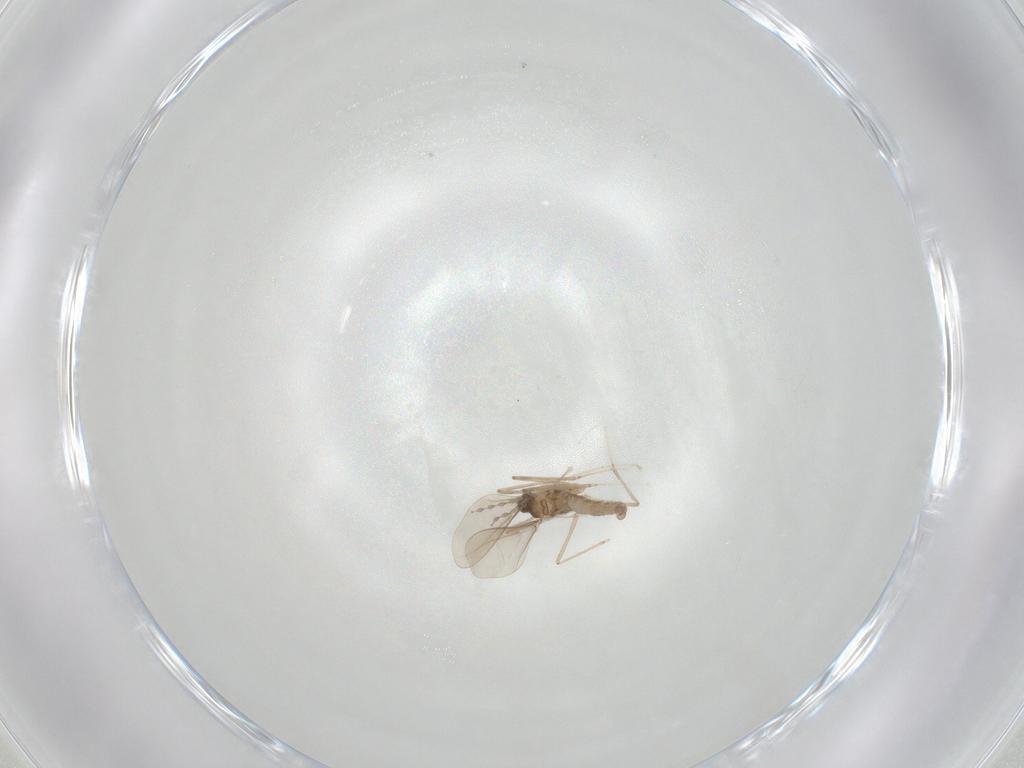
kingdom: Animalia
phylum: Arthropoda
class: Insecta
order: Diptera
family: Cecidomyiidae
